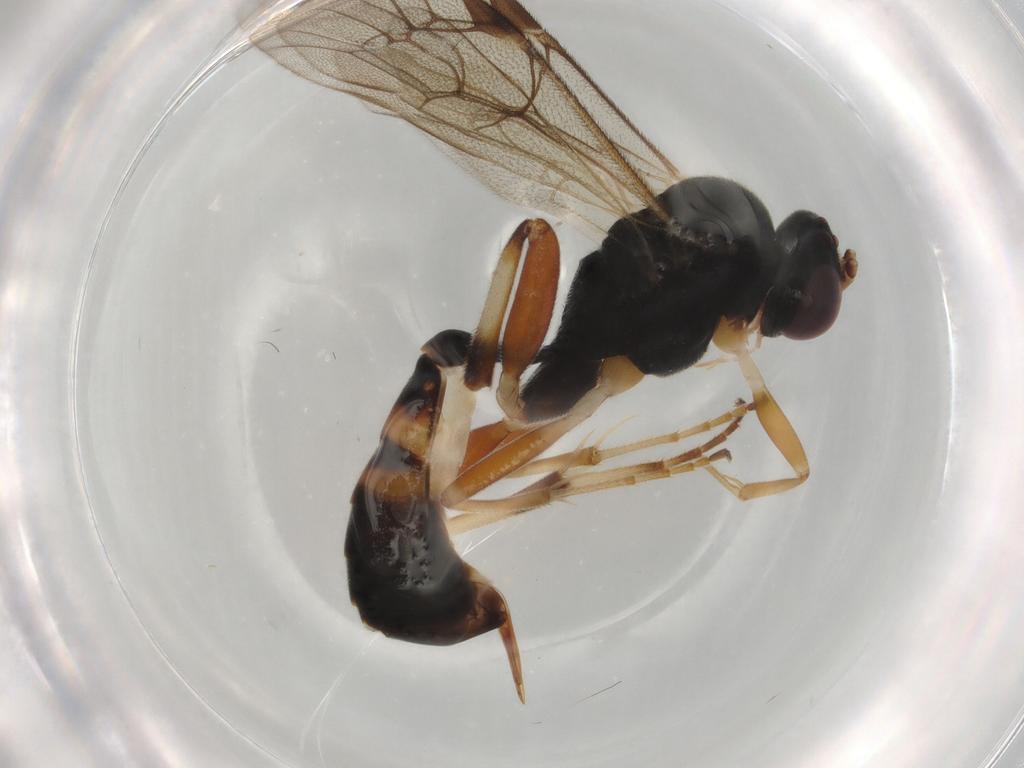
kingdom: Animalia
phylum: Arthropoda
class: Insecta
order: Hymenoptera
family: Ichneumonidae
